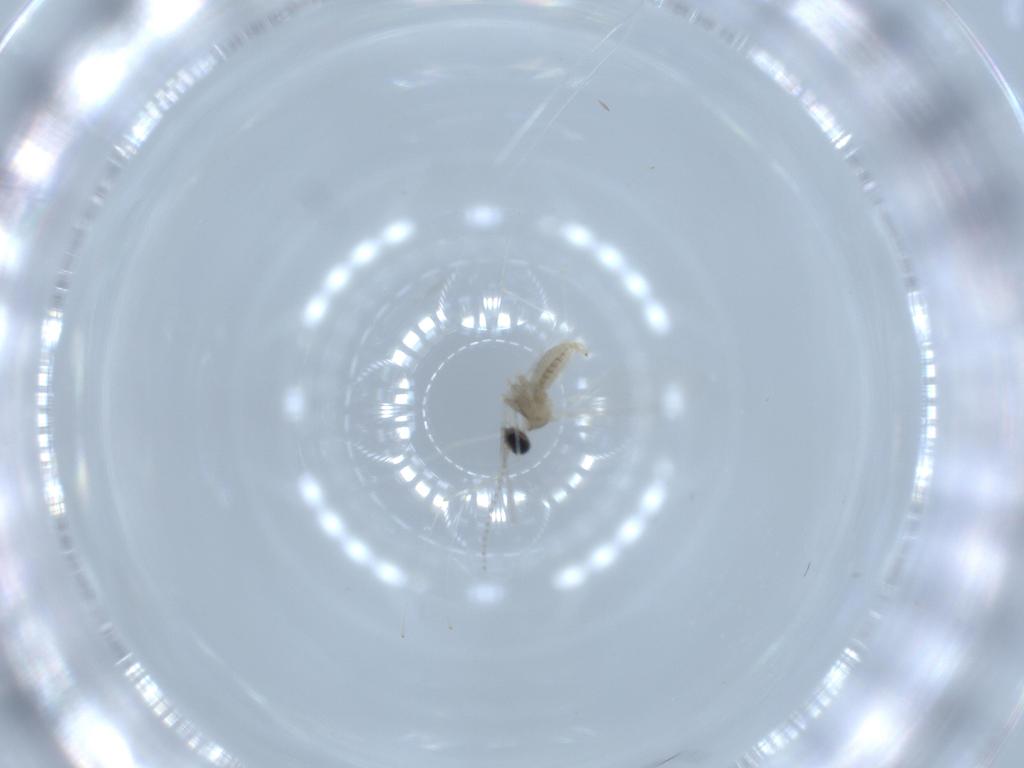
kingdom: Animalia
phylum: Arthropoda
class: Insecta
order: Diptera
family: Cecidomyiidae
